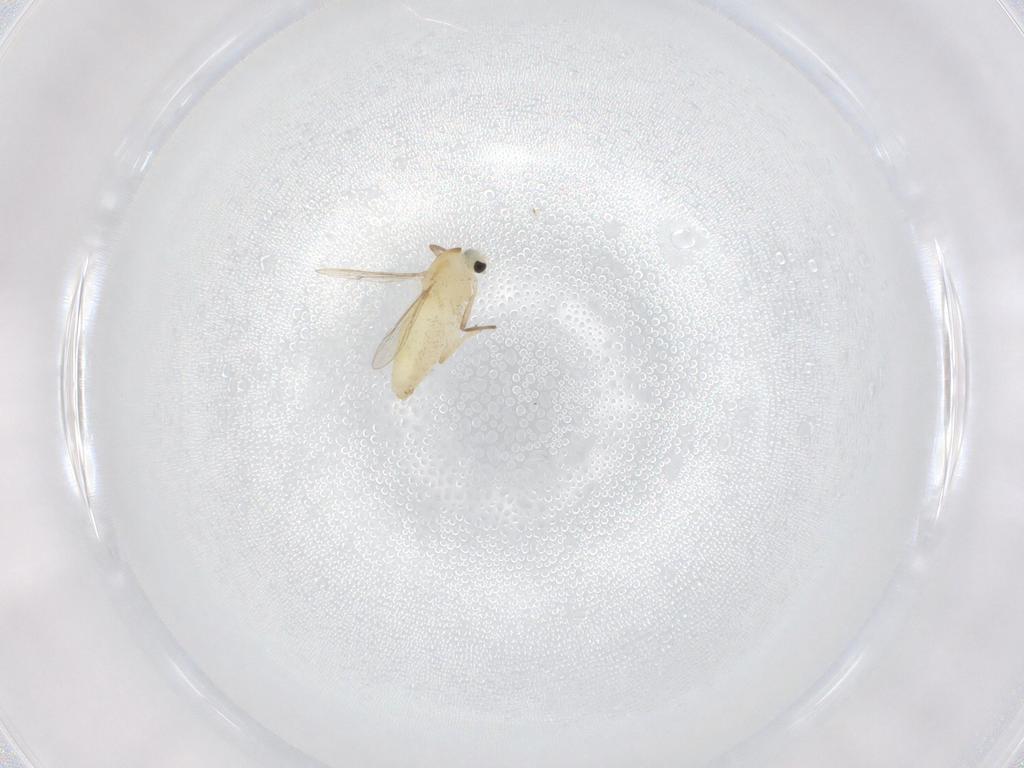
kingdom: Animalia
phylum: Arthropoda
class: Insecta
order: Diptera
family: Chironomidae
